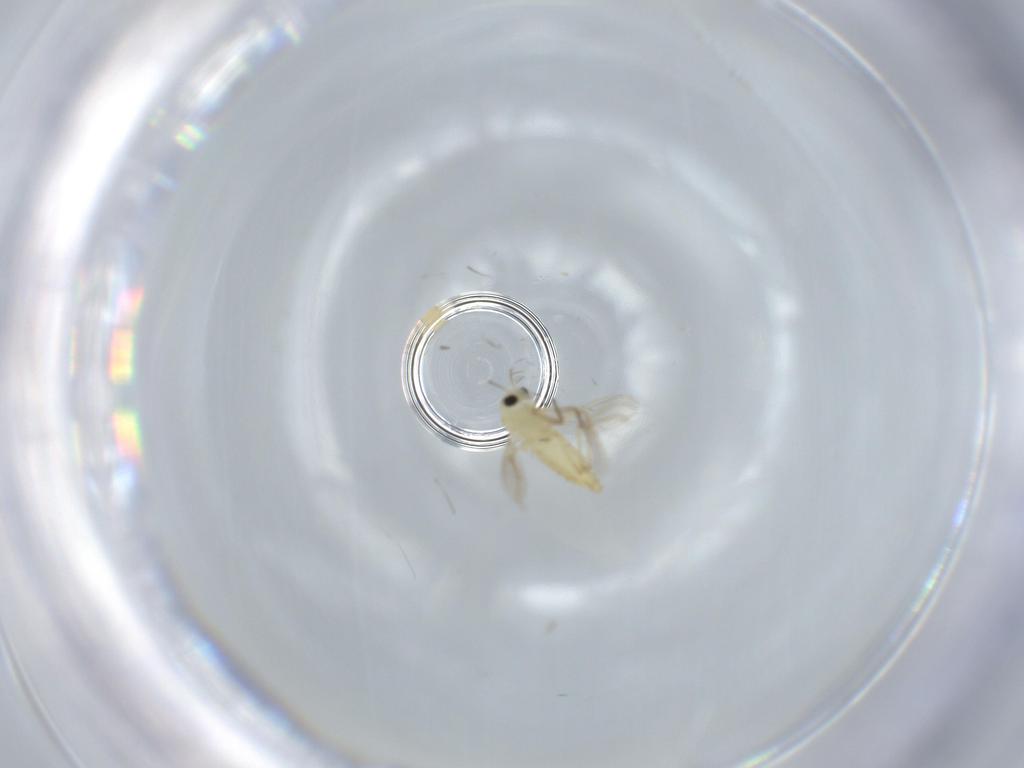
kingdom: Animalia
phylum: Arthropoda
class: Insecta
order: Diptera
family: Chironomidae
